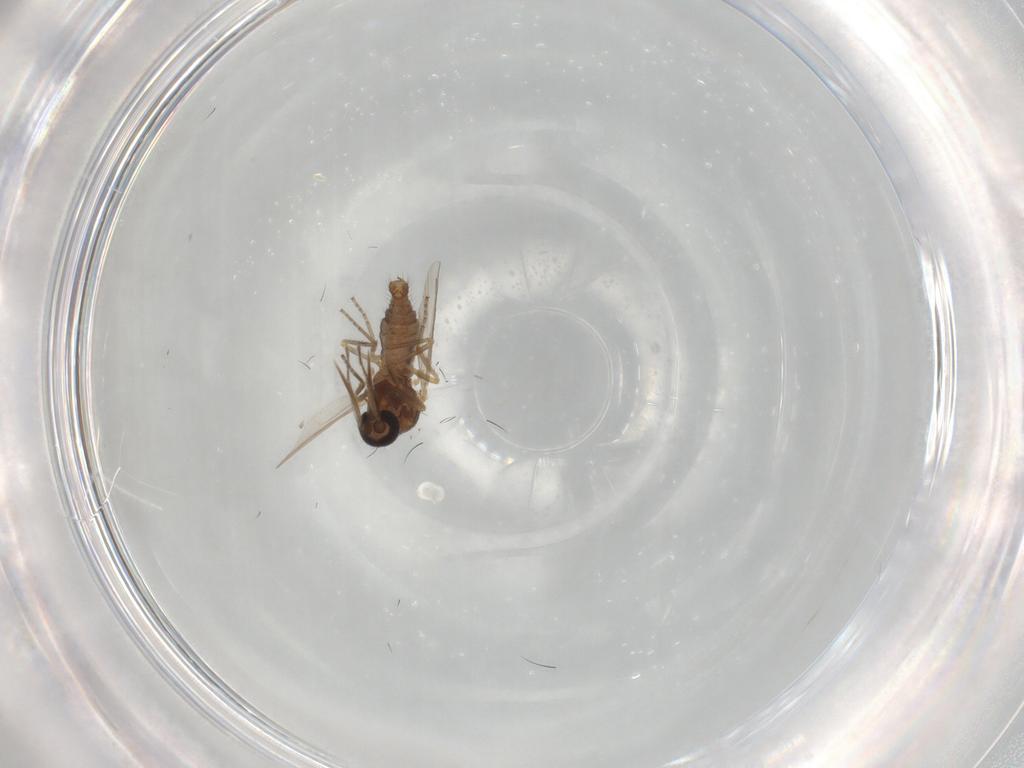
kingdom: Animalia
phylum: Arthropoda
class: Insecta
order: Diptera
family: Ceratopogonidae
